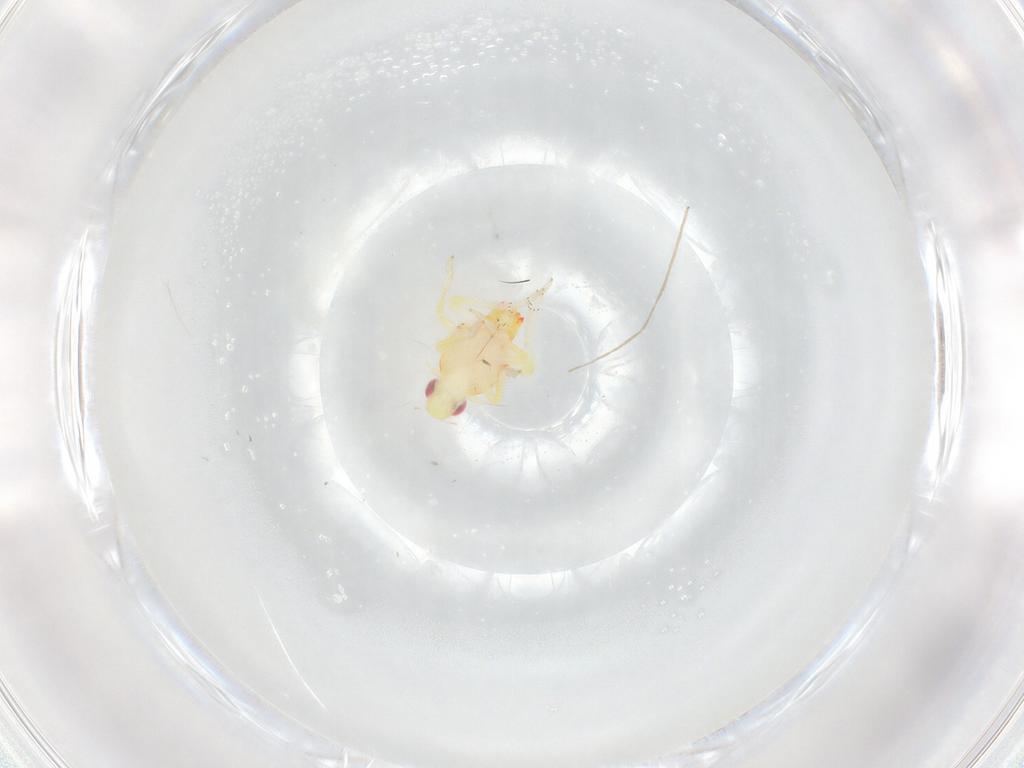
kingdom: Animalia
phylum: Arthropoda
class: Insecta
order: Hemiptera
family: Tropiduchidae
